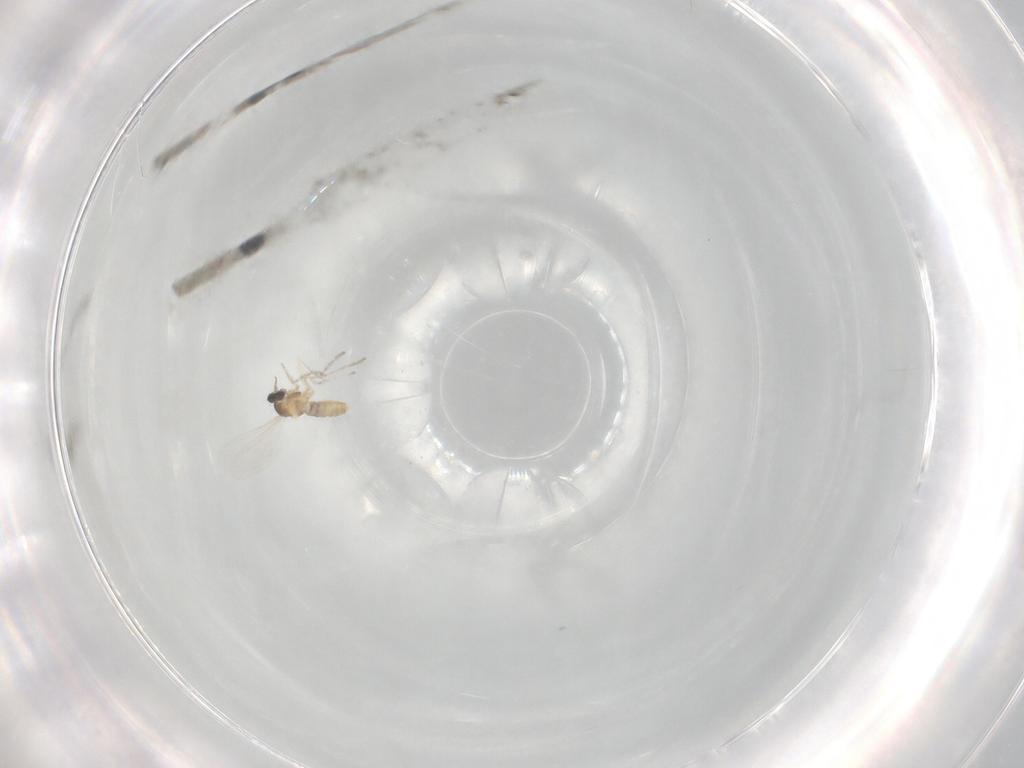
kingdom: Animalia
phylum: Arthropoda
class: Insecta
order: Diptera
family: Cecidomyiidae
